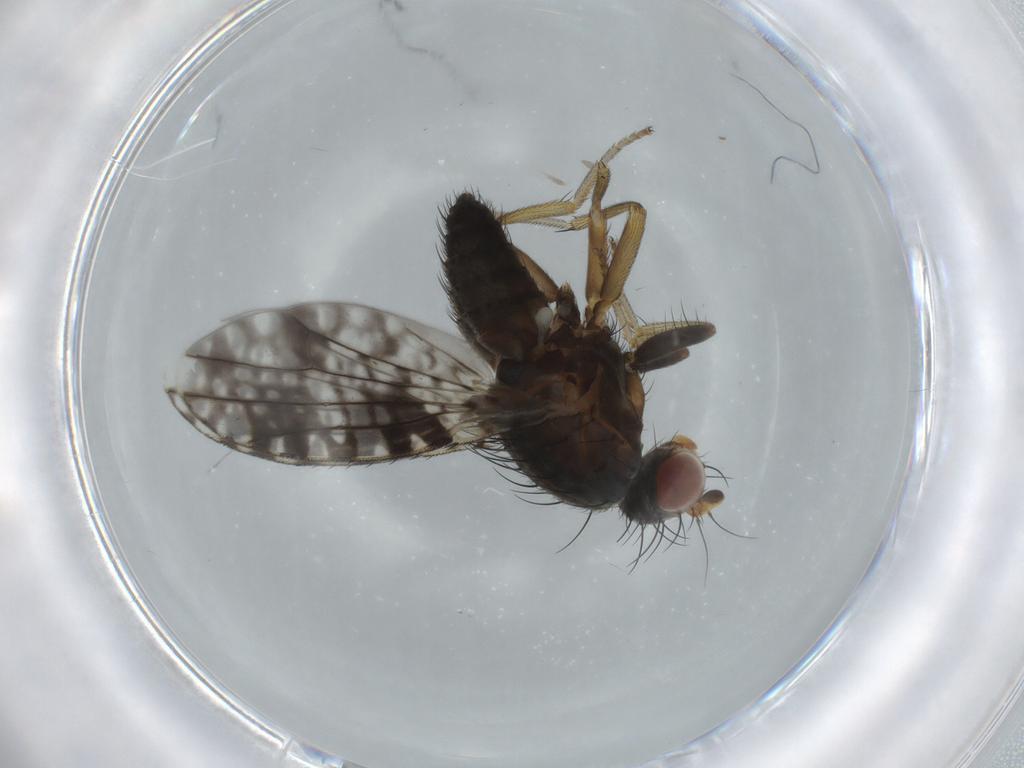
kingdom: Animalia
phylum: Arthropoda
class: Insecta
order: Diptera
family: Tephritidae
